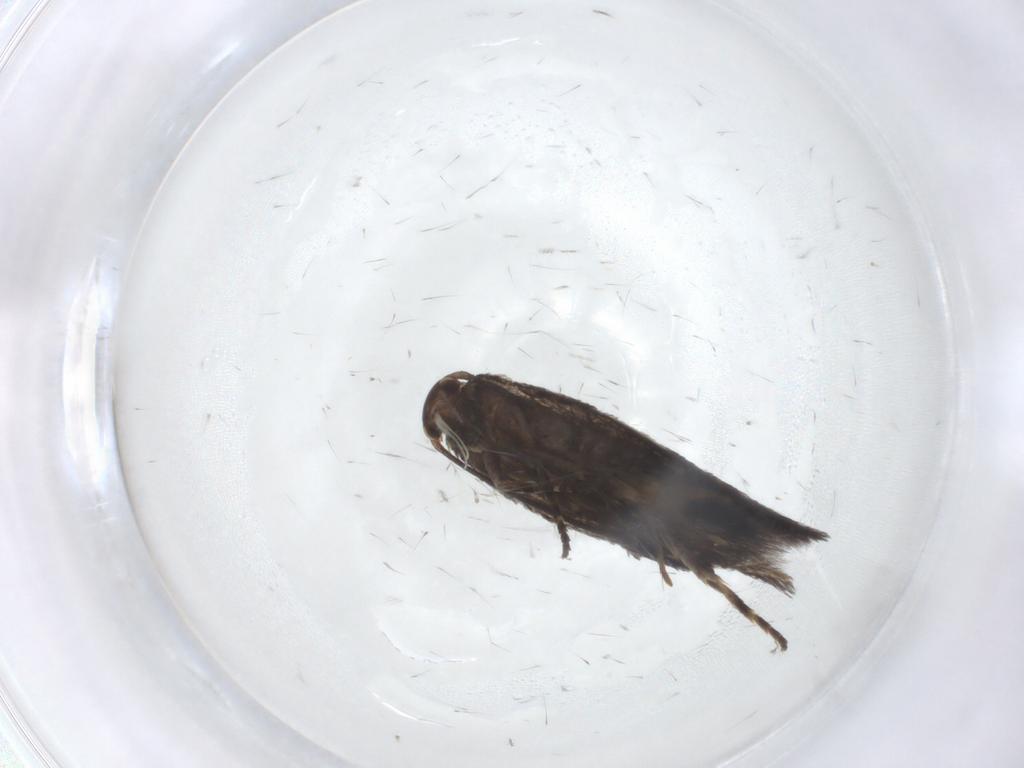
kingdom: Animalia
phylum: Arthropoda
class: Insecta
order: Lepidoptera
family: Elachistidae
